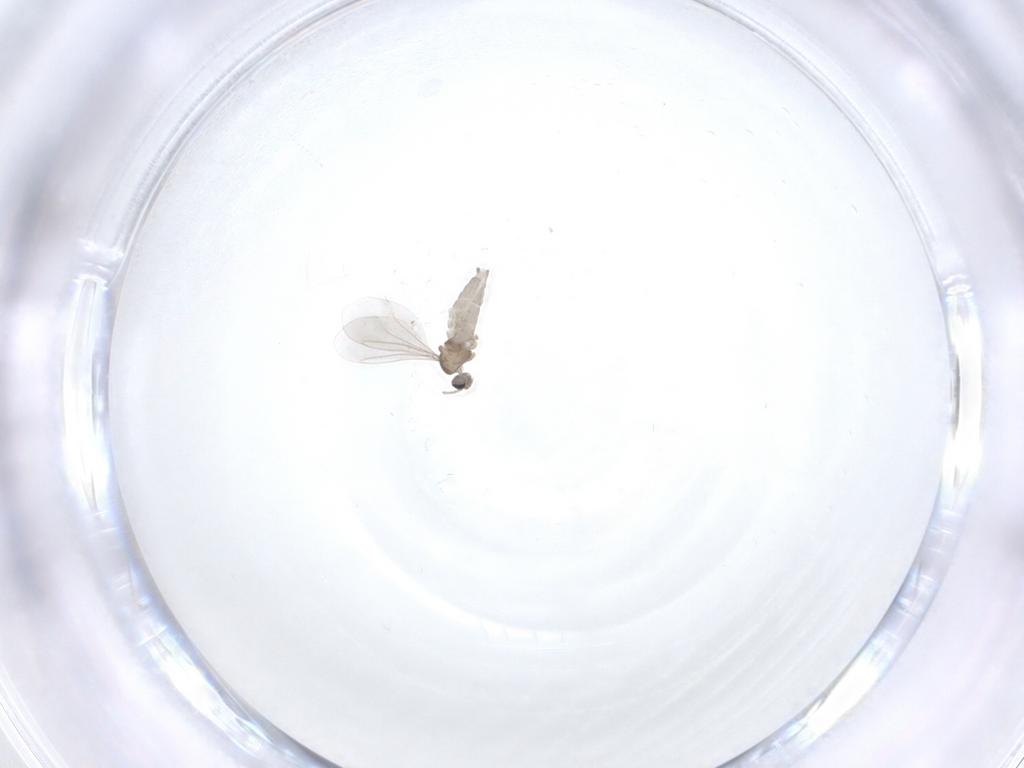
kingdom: Animalia
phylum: Arthropoda
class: Insecta
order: Diptera
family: Cecidomyiidae
